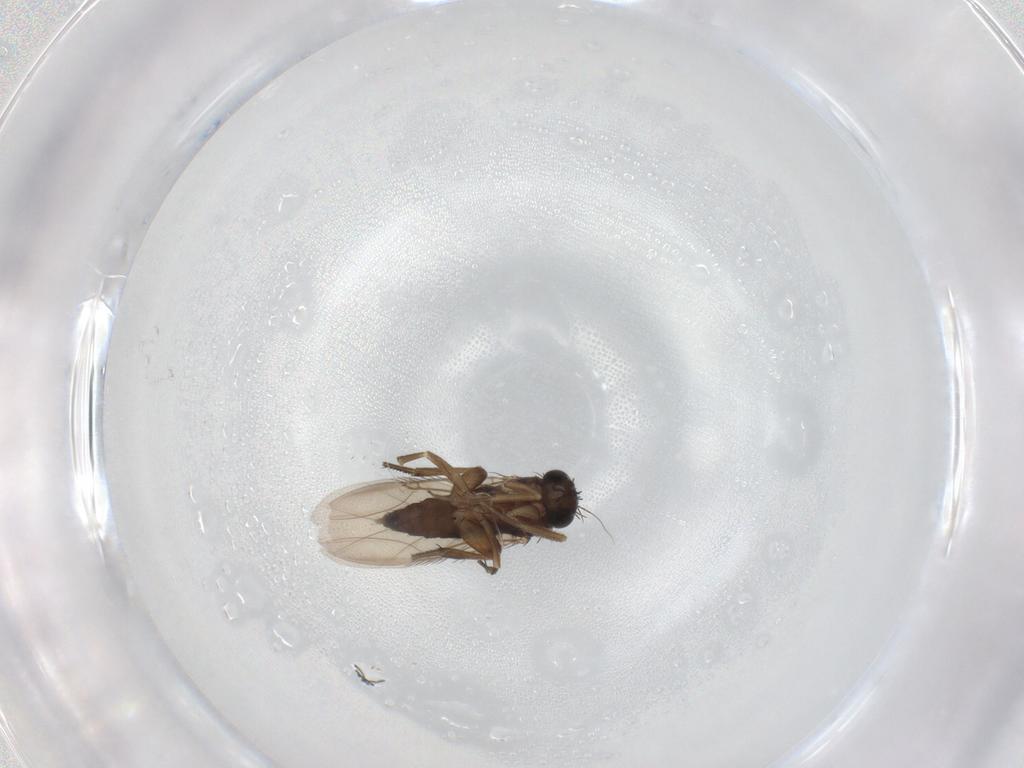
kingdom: Animalia
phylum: Arthropoda
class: Insecta
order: Diptera
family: Phoridae
